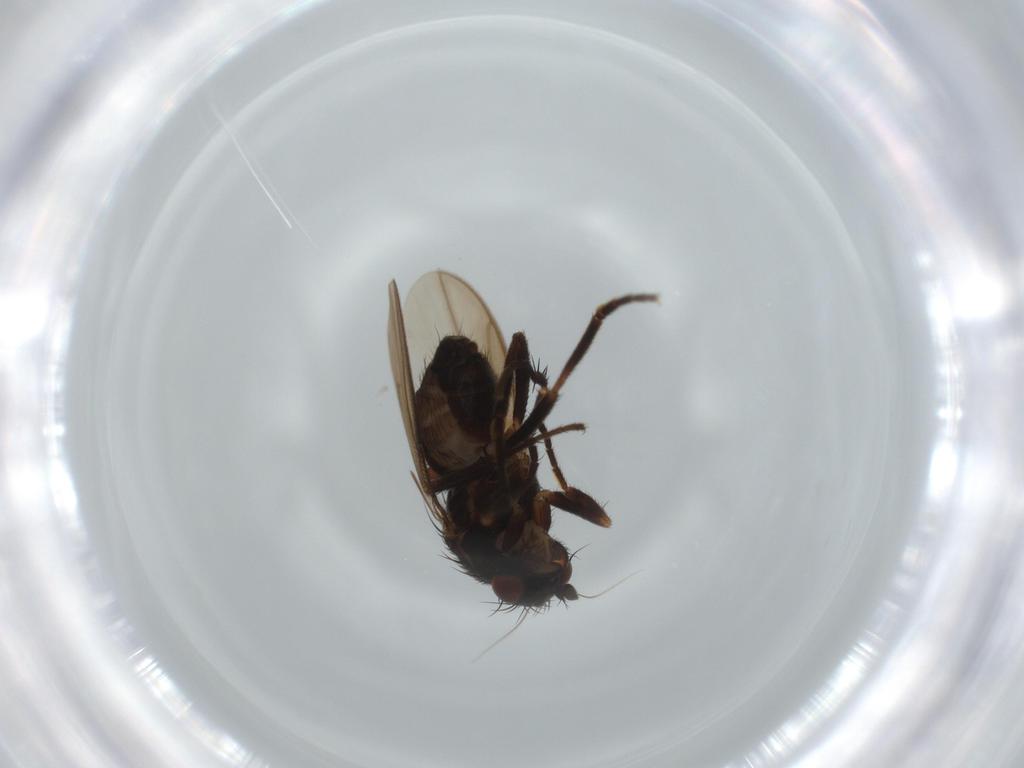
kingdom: Animalia
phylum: Arthropoda
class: Insecta
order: Diptera
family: Sphaeroceridae
